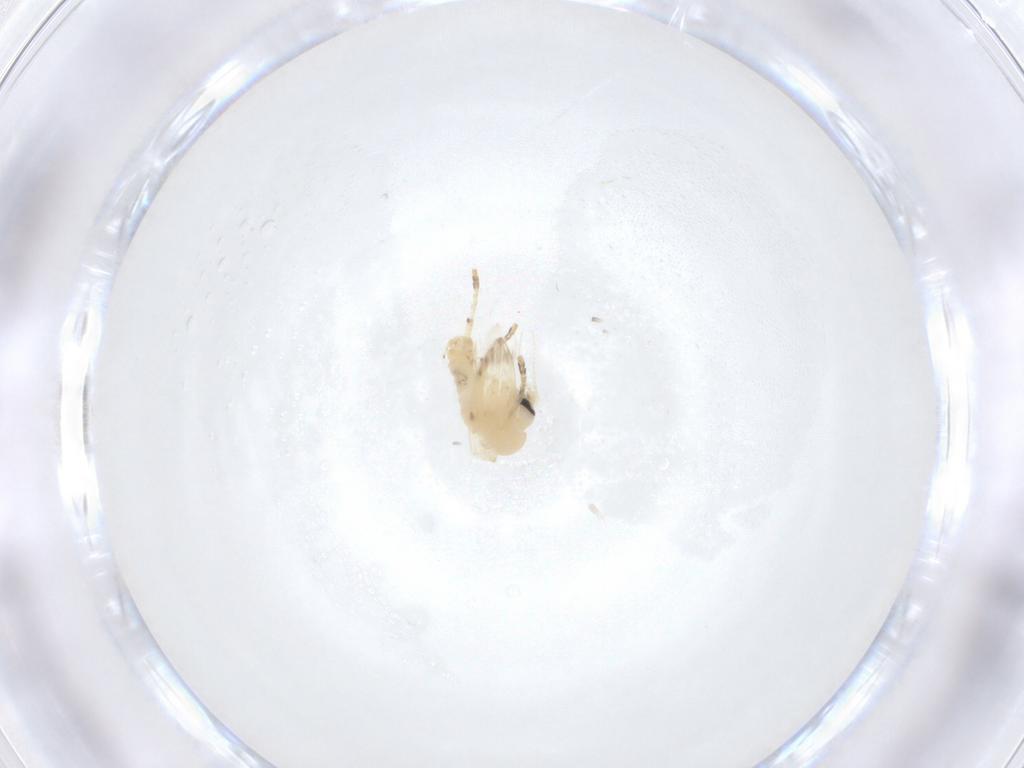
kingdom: Animalia
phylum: Arthropoda
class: Insecta
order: Diptera
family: Psychodidae
